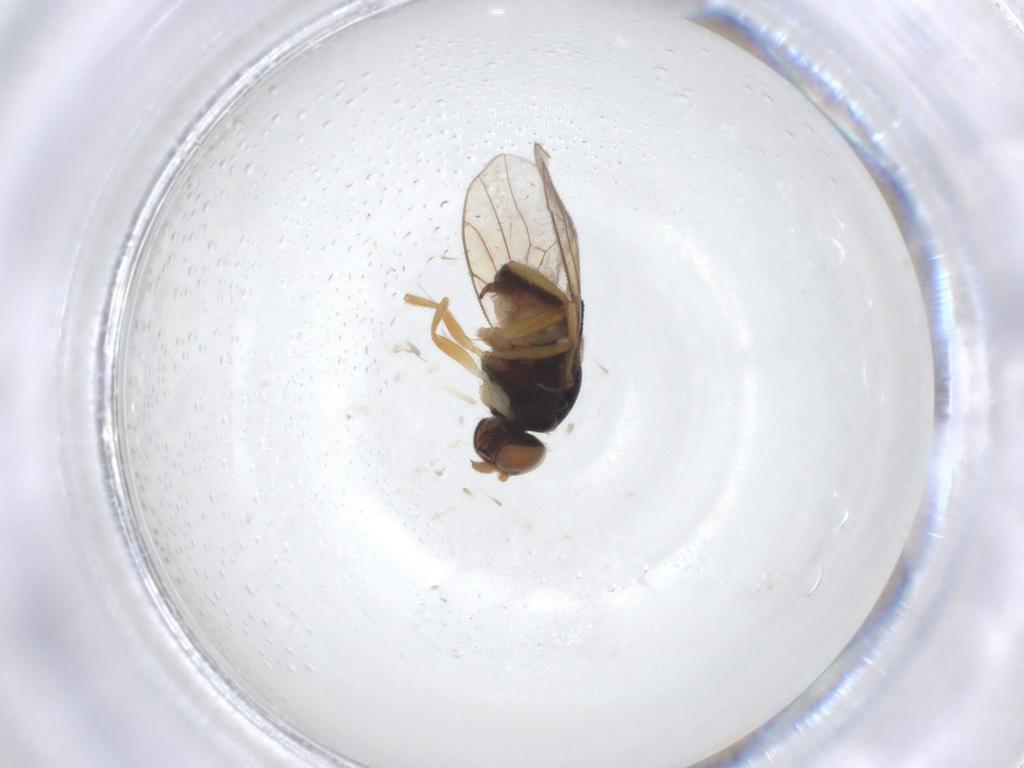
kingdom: Animalia
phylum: Arthropoda
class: Insecta
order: Diptera
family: Chloropidae
